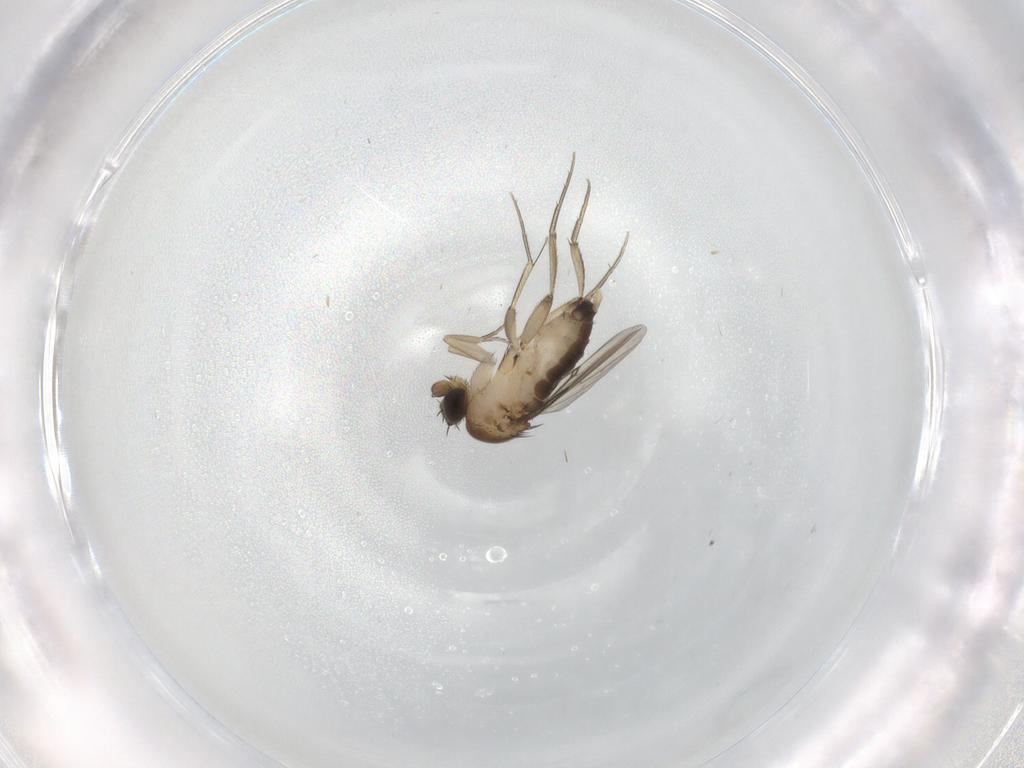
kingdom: Animalia
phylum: Arthropoda
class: Insecta
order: Diptera
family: Phoridae
